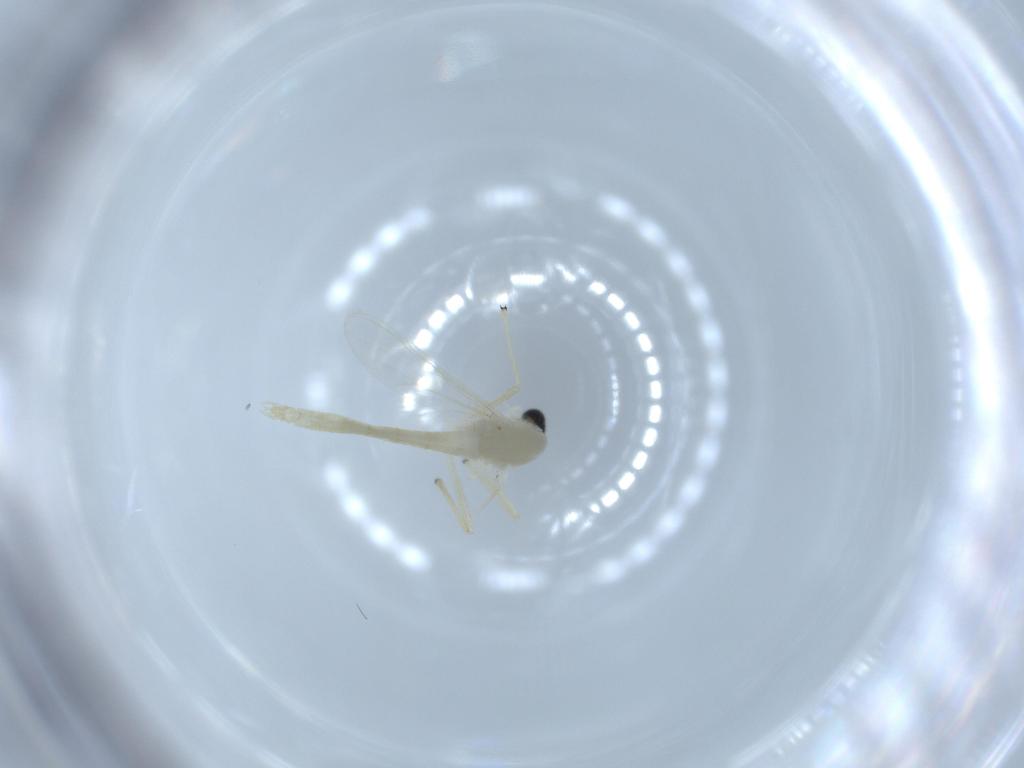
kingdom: Animalia
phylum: Arthropoda
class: Insecta
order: Diptera
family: Chironomidae
